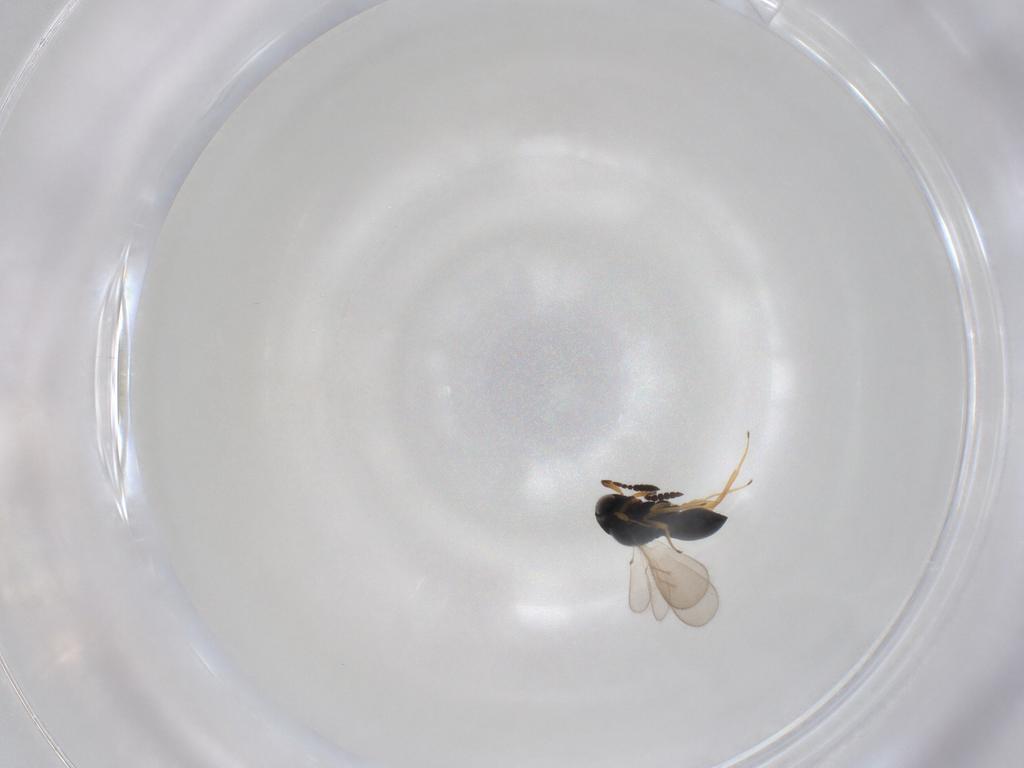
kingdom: Animalia
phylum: Arthropoda
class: Insecta
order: Hymenoptera
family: Scelionidae
